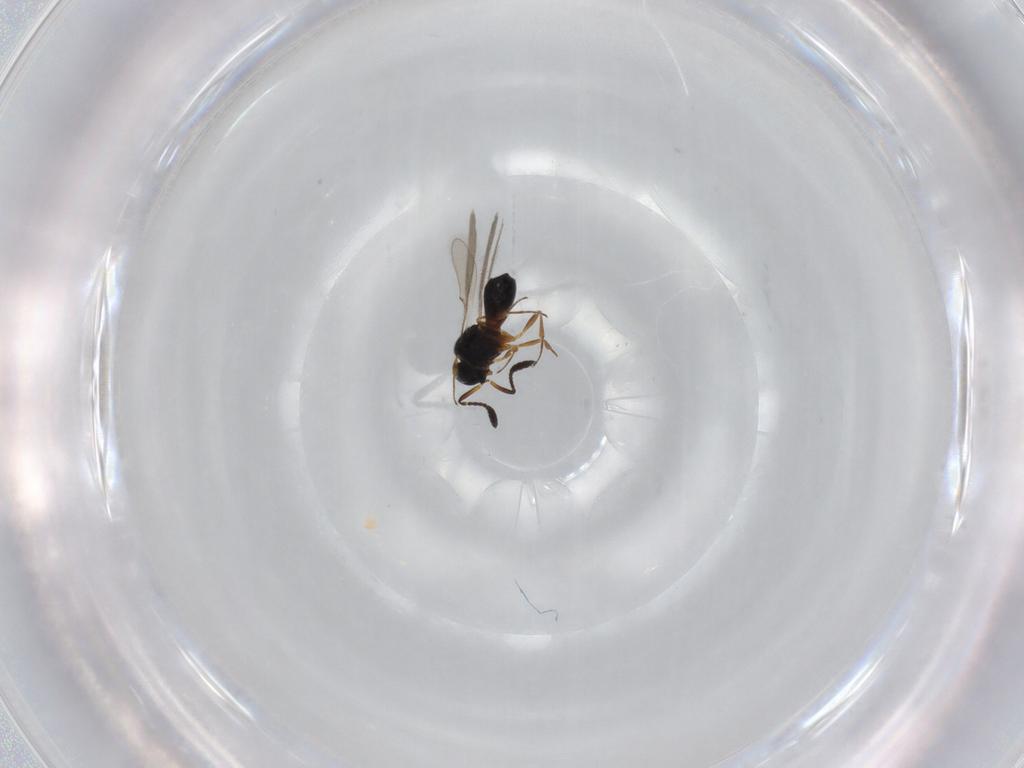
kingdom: Animalia
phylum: Arthropoda
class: Insecta
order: Hymenoptera
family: Scelionidae
